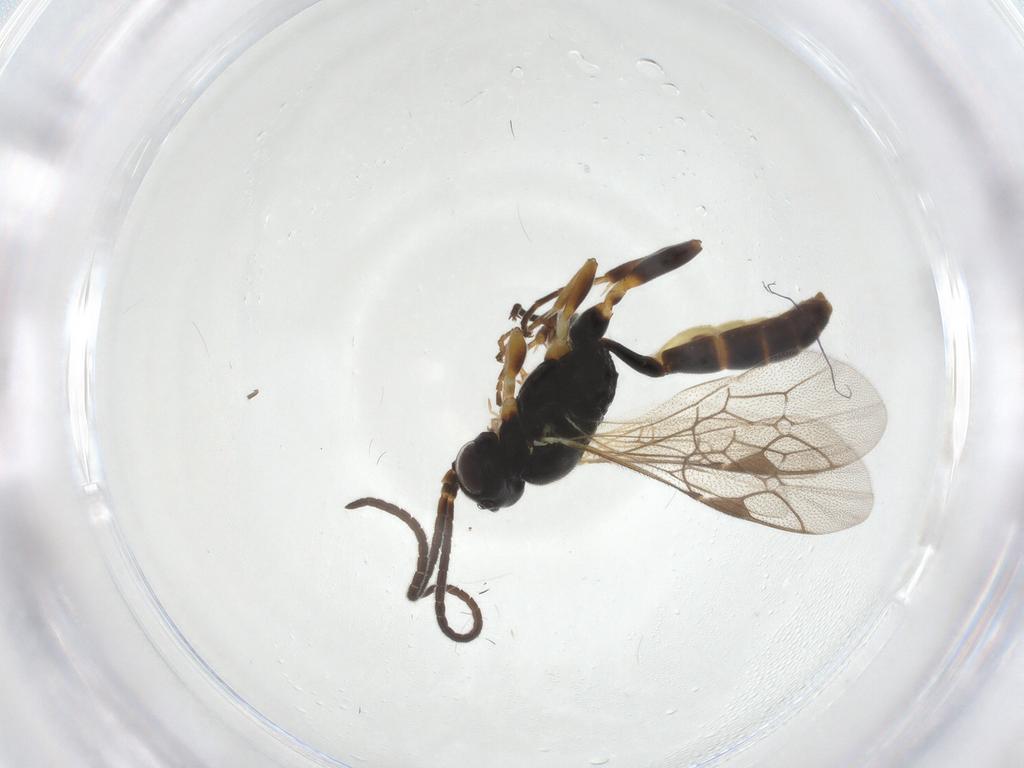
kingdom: Animalia
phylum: Arthropoda
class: Insecta
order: Hymenoptera
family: Ichneumonidae
